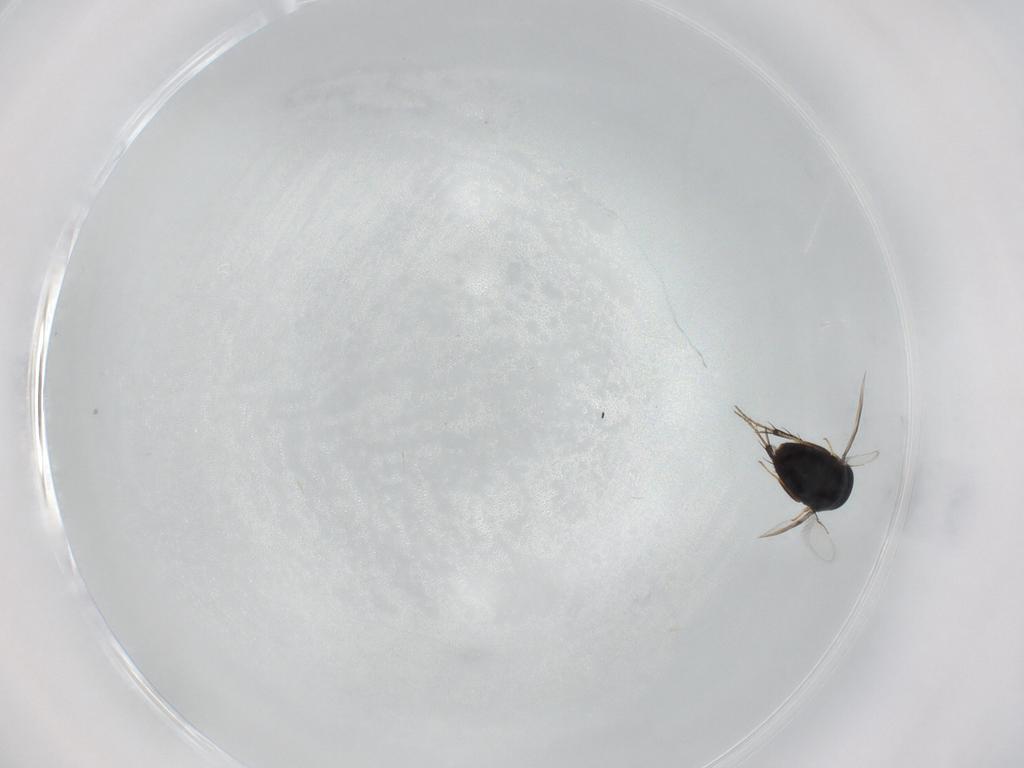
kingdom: Animalia
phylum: Arthropoda
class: Insecta
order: Hymenoptera
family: Signiphoridae
